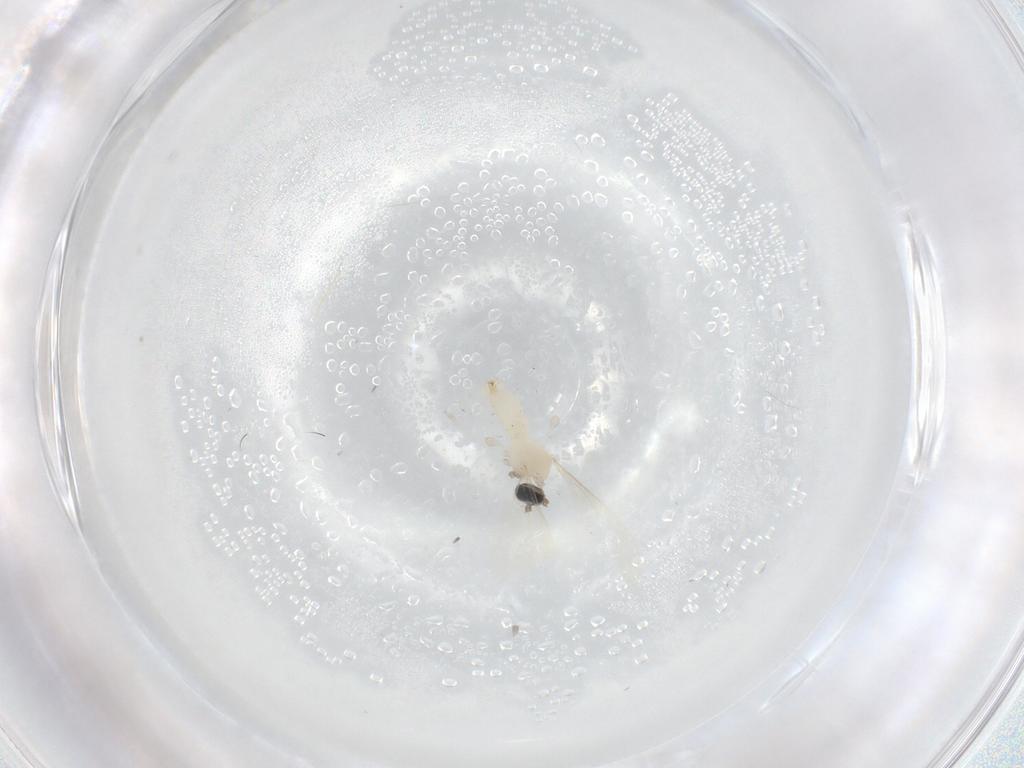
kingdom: Animalia
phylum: Arthropoda
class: Insecta
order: Diptera
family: Cecidomyiidae
